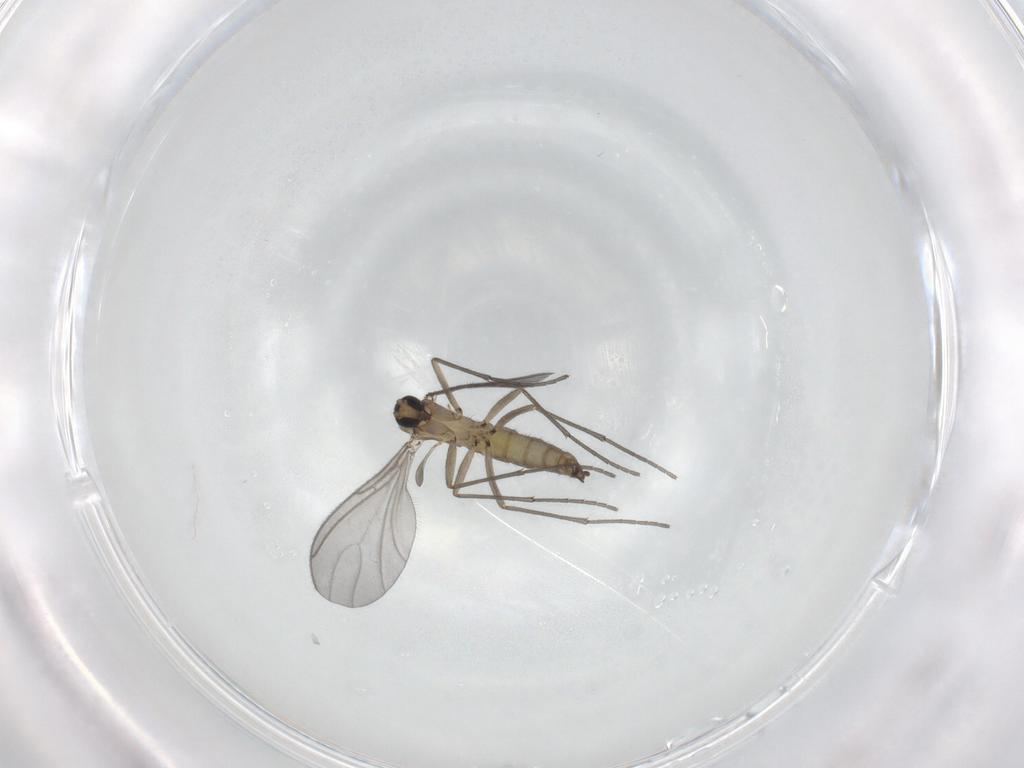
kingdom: Animalia
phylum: Arthropoda
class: Insecta
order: Diptera
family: Sciaridae
